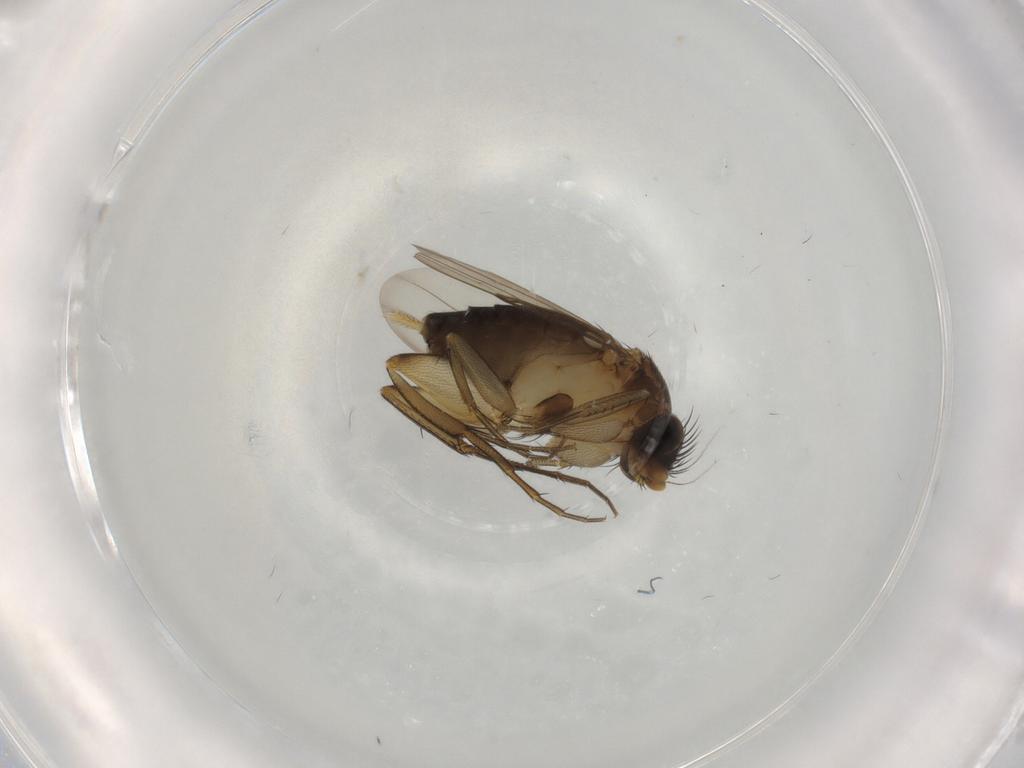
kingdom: Animalia
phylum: Arthropoda
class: Insecta
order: Diptera
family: Phoridae
